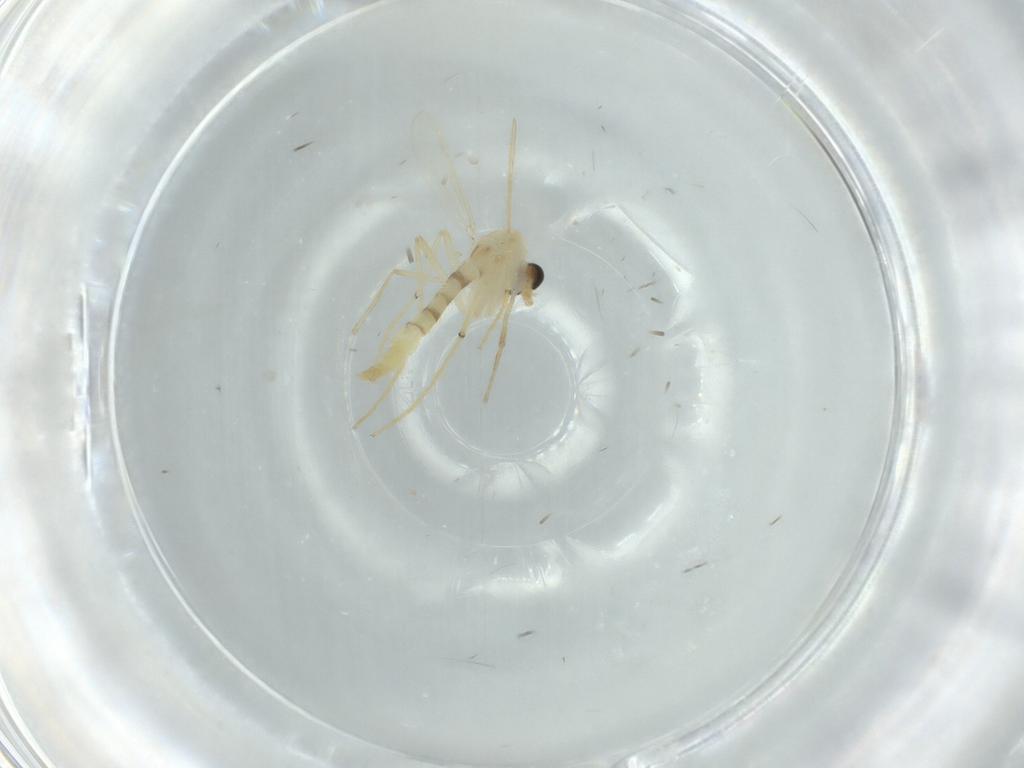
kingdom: Animalia
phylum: Arthropoda
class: Insecta
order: Diptera
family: Chironomidae
